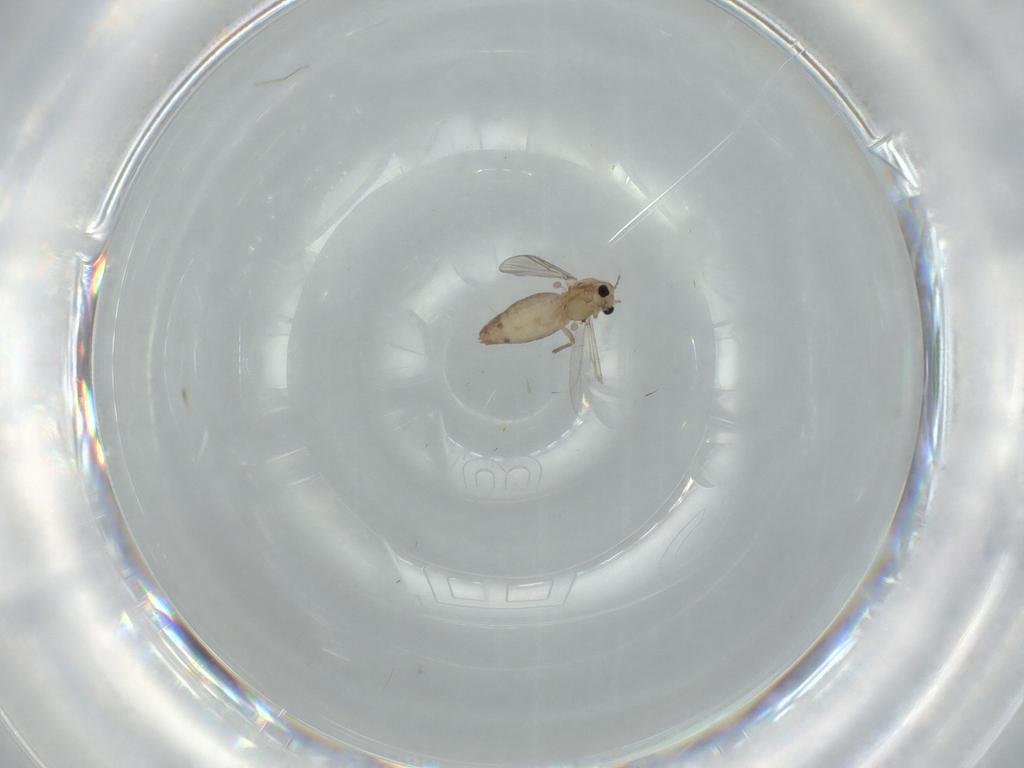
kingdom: Animalia
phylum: Arthropoda
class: Insecta
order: Diptera
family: Chironomidae
